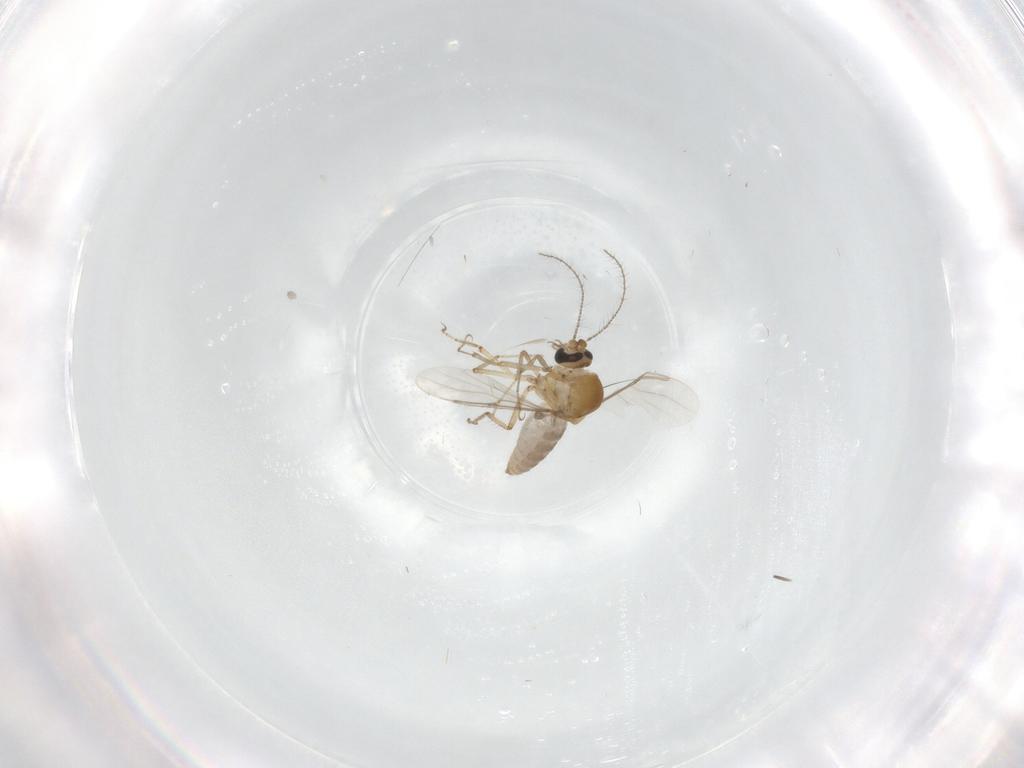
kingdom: Animalia
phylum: Arthropoda
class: Insecta
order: Diptera
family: Ceratopogonidae
